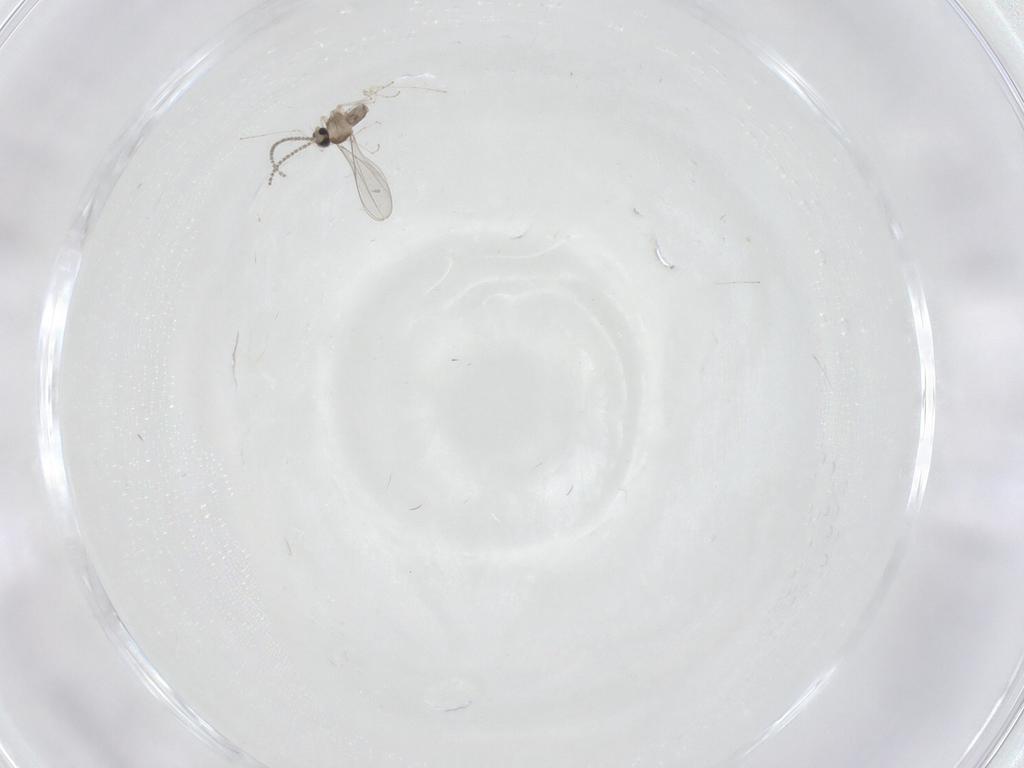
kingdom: Animalia
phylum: Arthropoda
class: Insecta
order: Diptera
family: Cecidomyiidae
